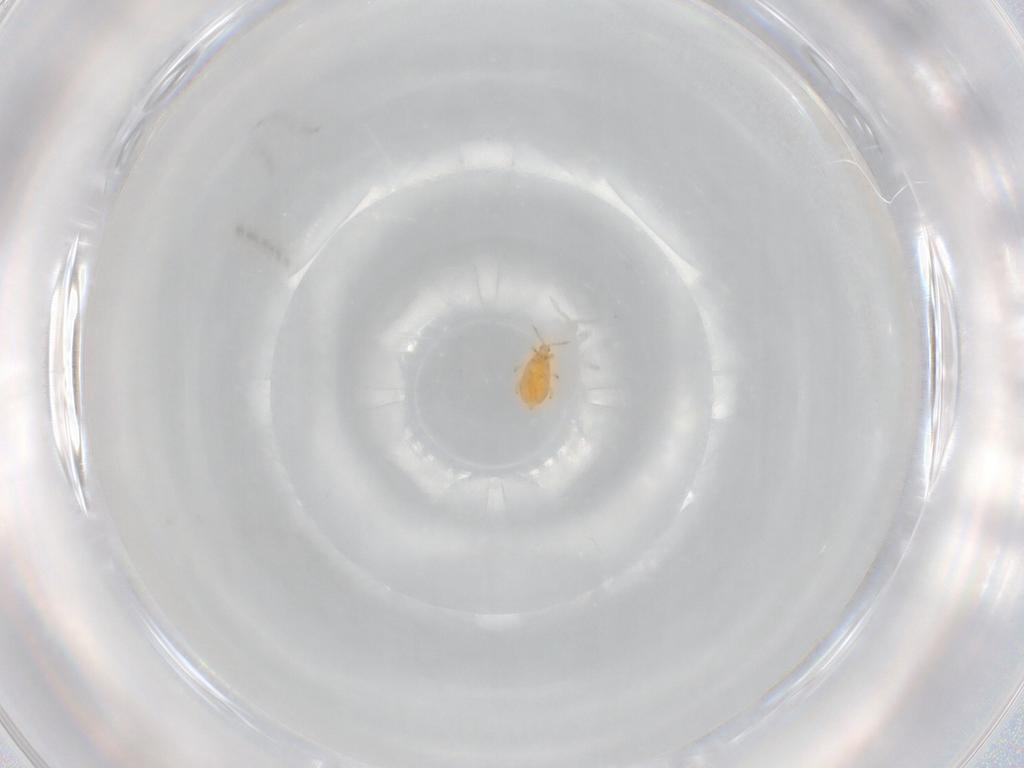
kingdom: Animalia
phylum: Arthropoda
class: Insecta
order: Thysanoptera
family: Heterothripidae
